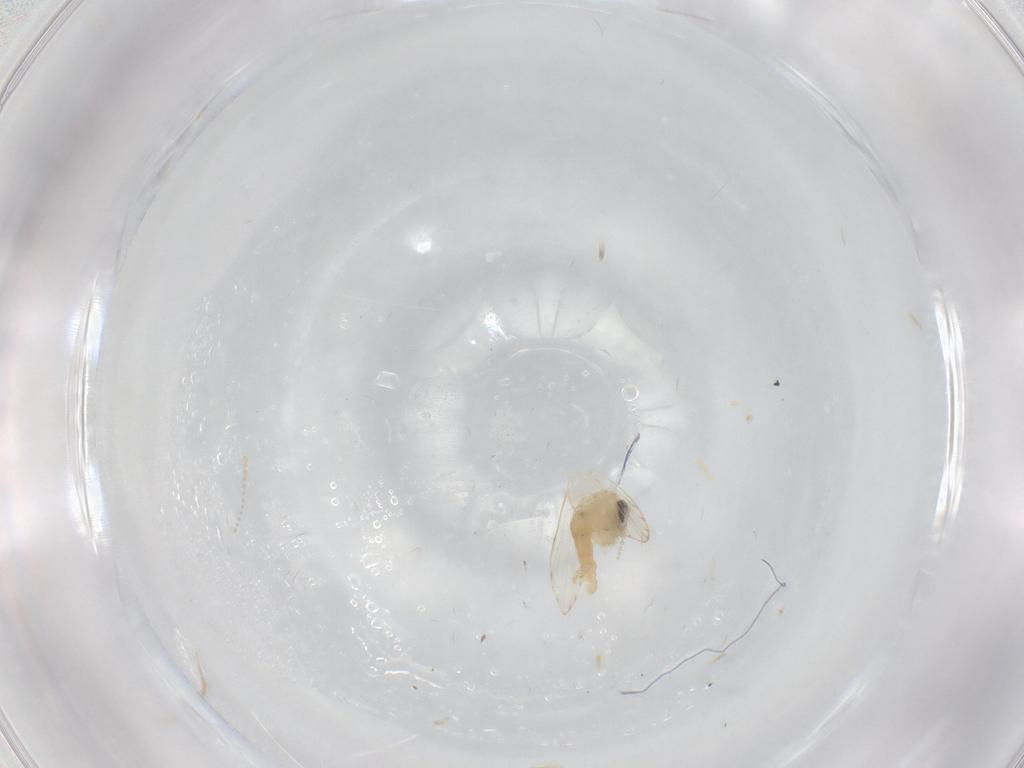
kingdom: Animalia
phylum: Arthropoda
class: Insecta
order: Diptera
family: Psychodidae
